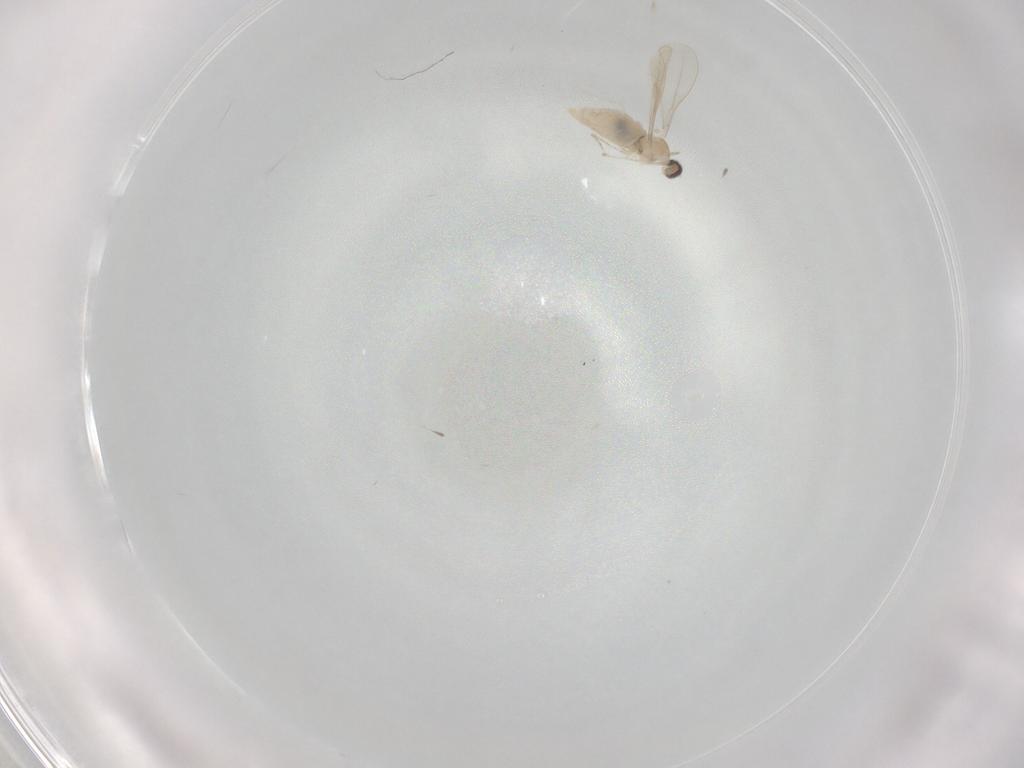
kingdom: Animalia
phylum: Arthropoda
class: Insecta
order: Diptera
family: Cecidomyiidae
